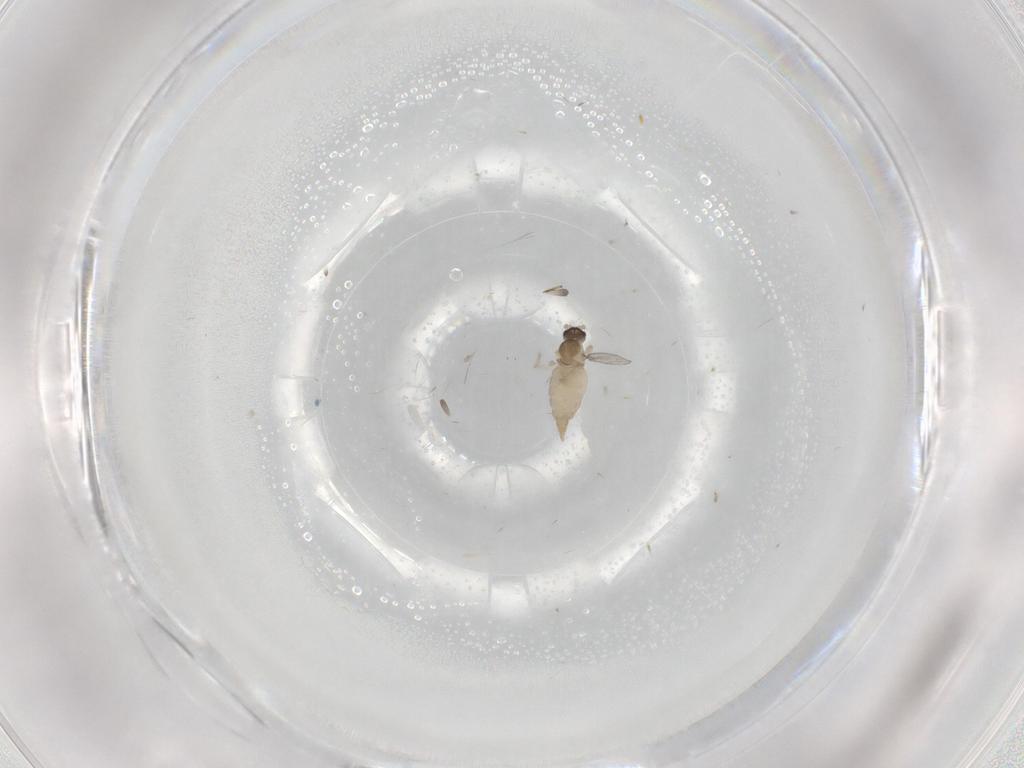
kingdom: Animalia
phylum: Arthropoda
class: Insecta
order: Diptera
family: Cecidomyiidae
